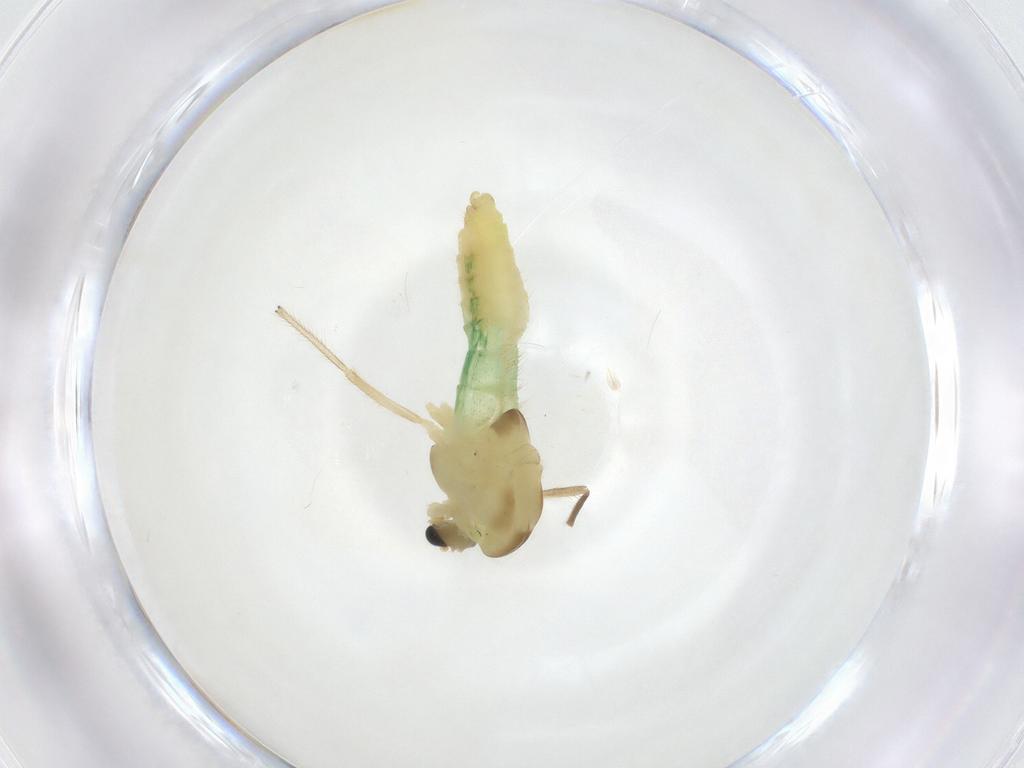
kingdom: Animalia
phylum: Arthropoda
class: Insecta
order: Diptera
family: Chironomidae
